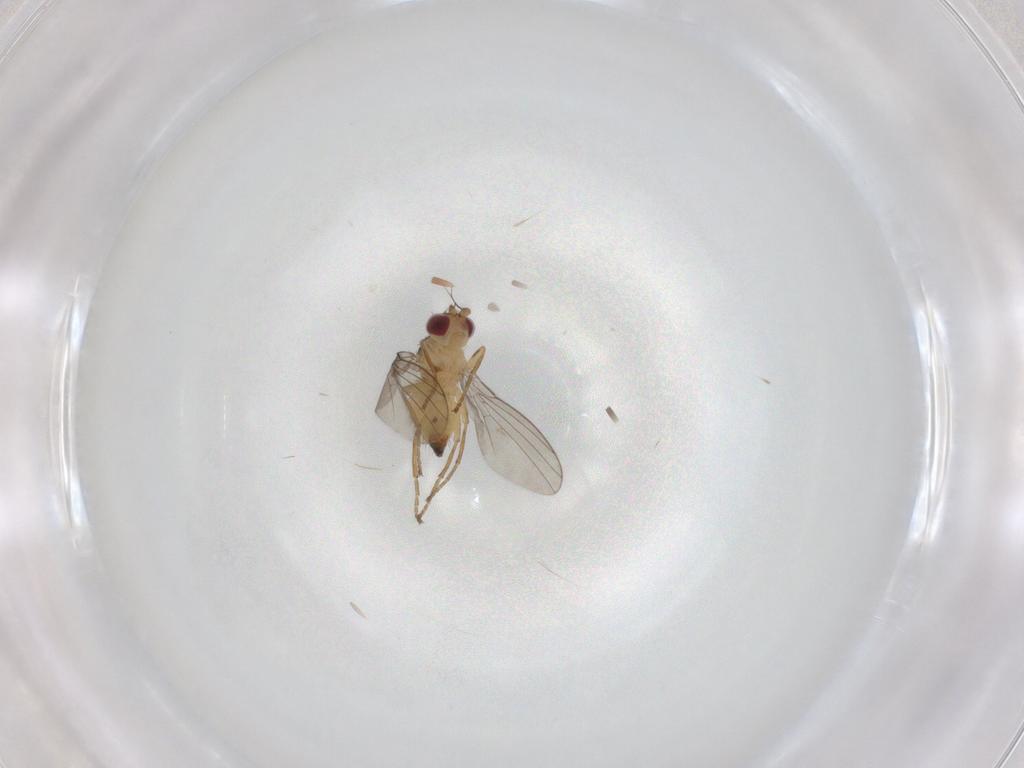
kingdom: Animalia
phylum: Arthropoda
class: Insecta
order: Diptera
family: Agromyzidae
